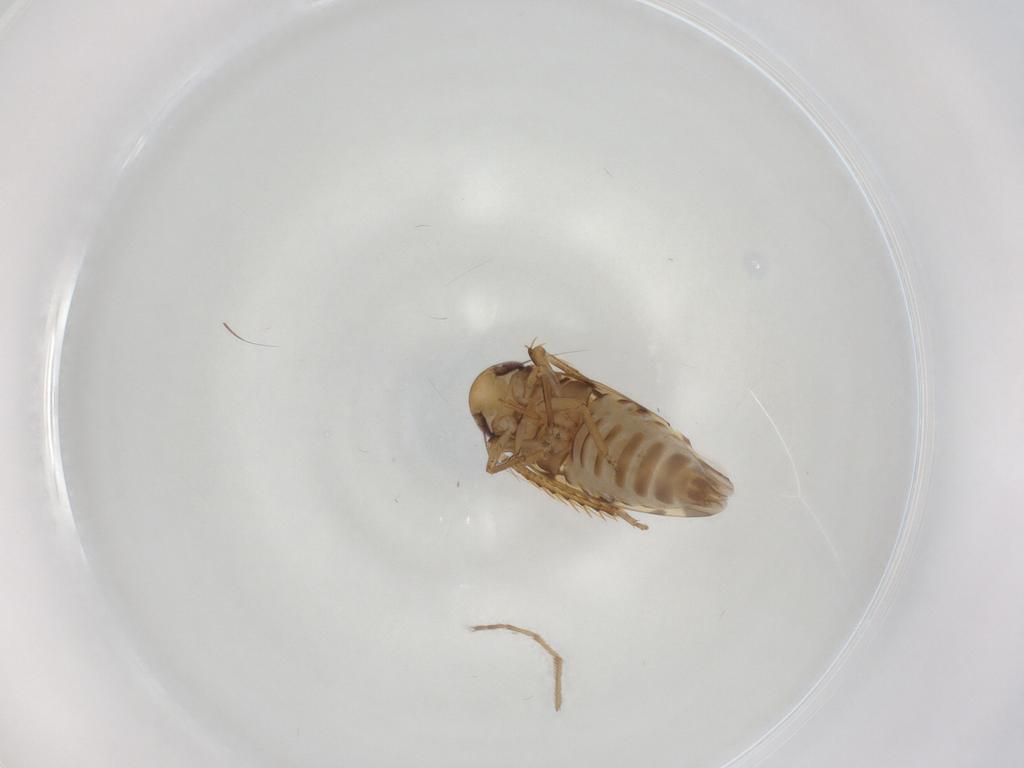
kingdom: Animalia
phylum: Arthropoda
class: Insecta
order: Hemiptera
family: Cicadellidae
